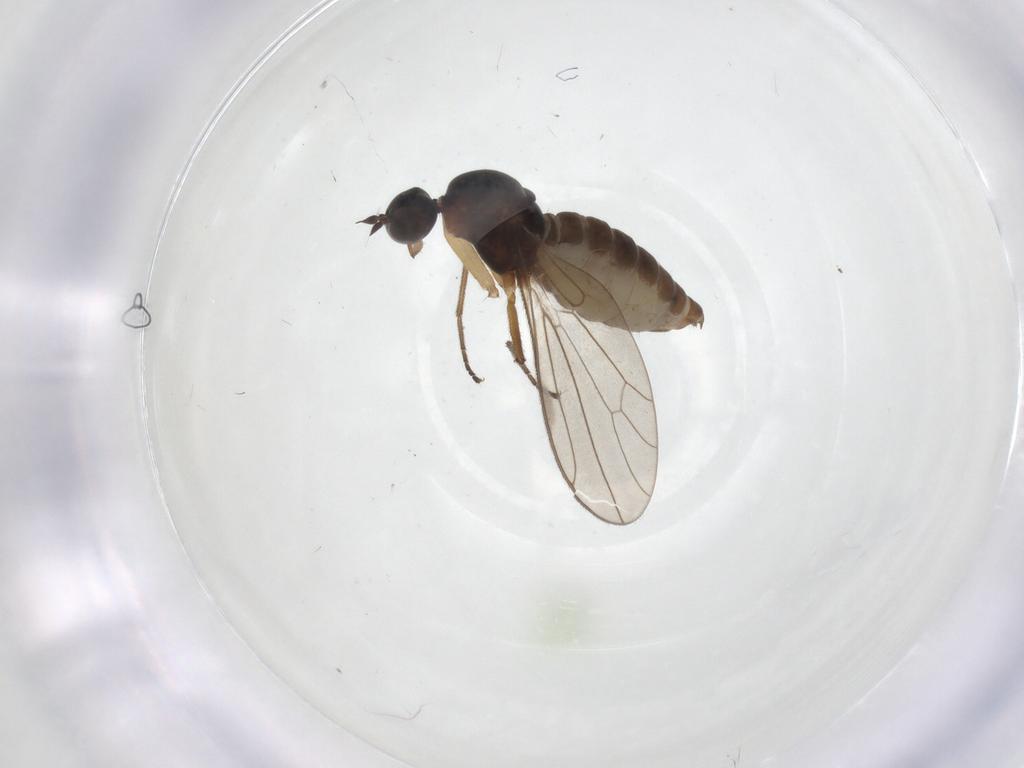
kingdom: Animalia
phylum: Arthropoda
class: Insecta
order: Diptera
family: Empididae
